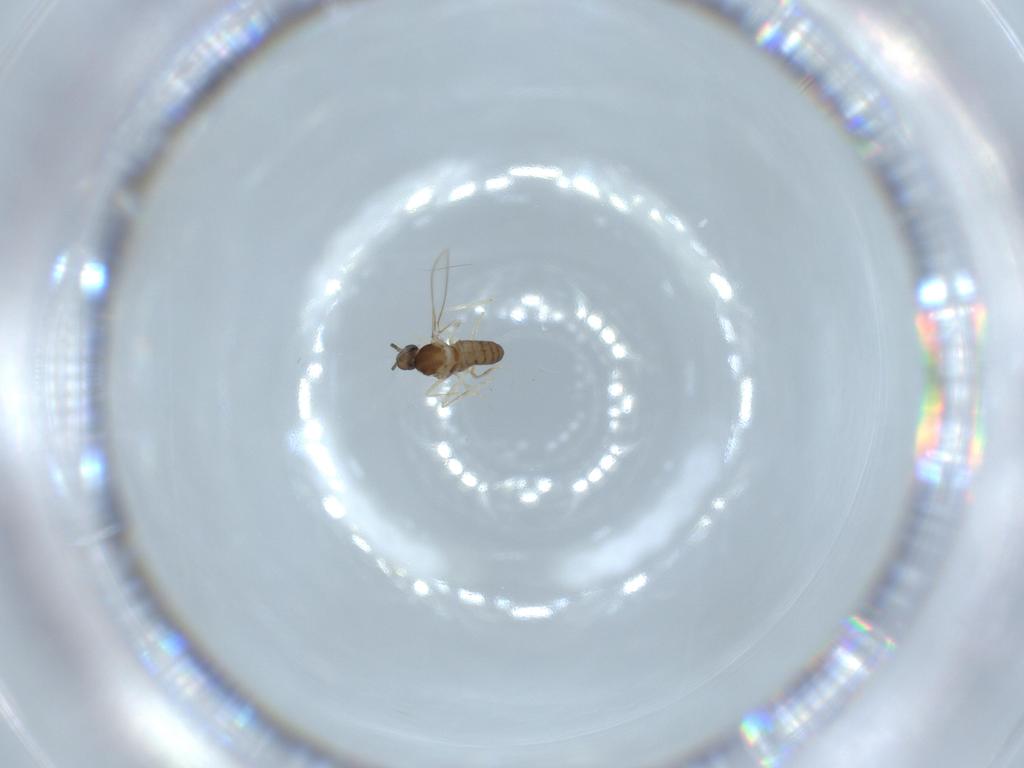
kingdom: Animalia
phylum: Arthropoda
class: Insecta
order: Diptera
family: Cecidomyiidae
